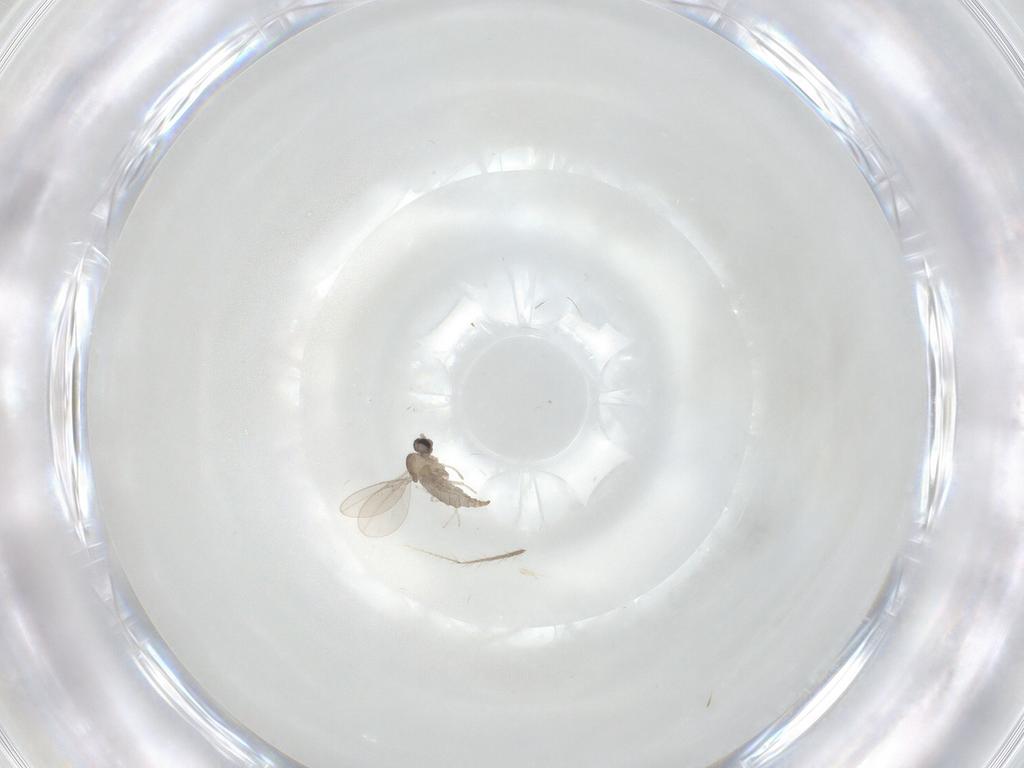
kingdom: Animalia
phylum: Arthropoda
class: Insecta
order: Diptera
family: Cecidomyiidae
